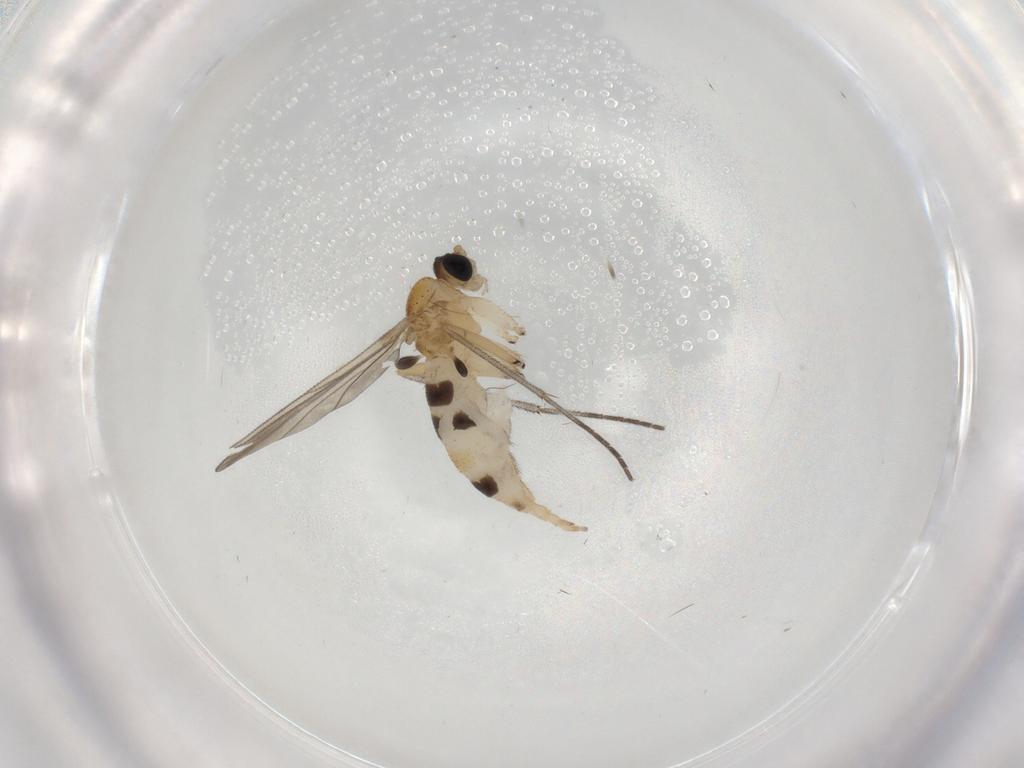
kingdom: Animalia
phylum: Arthropoda
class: Insecta
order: Diptera
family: Sciaridae
